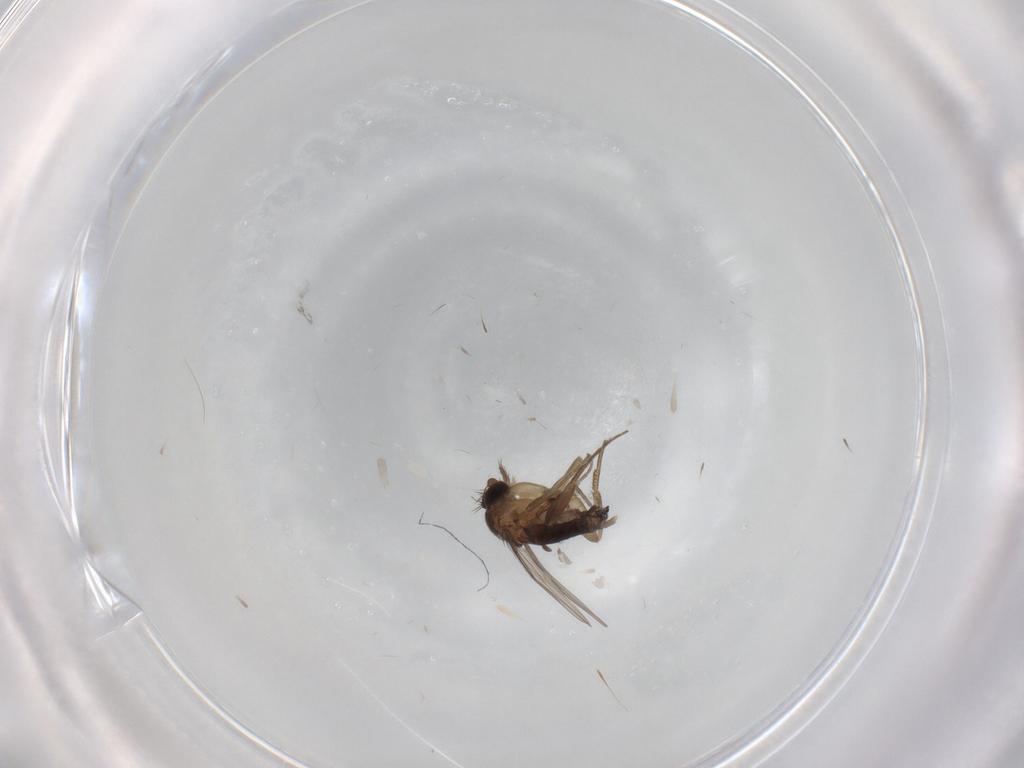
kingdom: Animalia
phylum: Arthropoda
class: Insecta
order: Diptera
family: Phoridae
